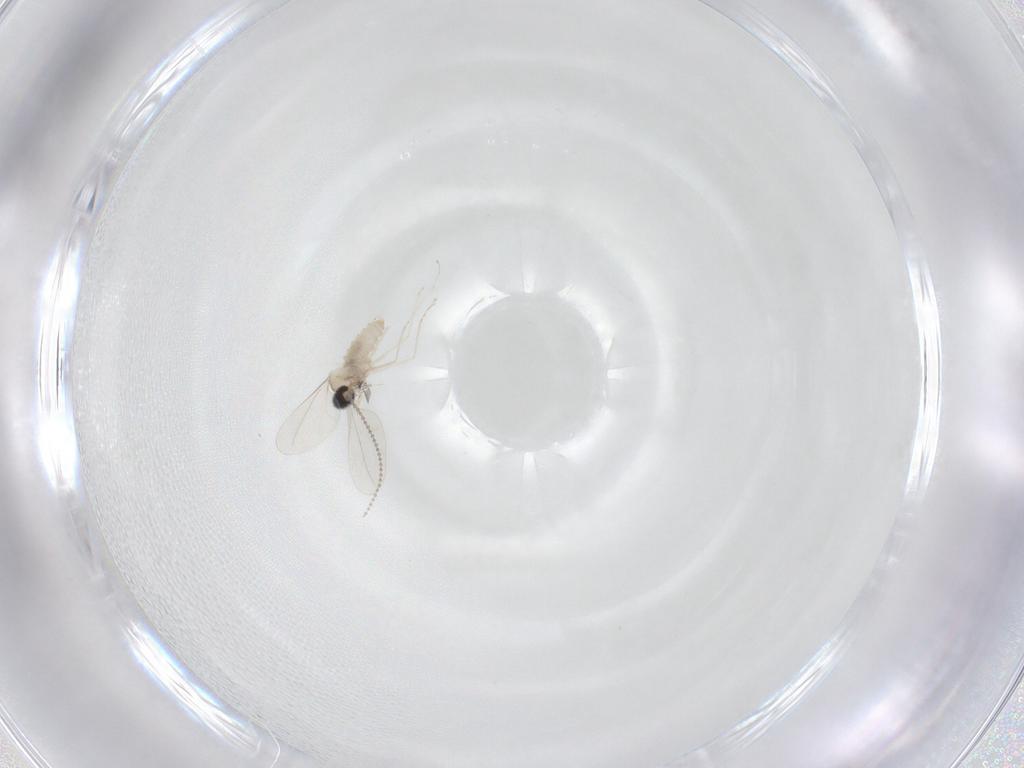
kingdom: Animalia
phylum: Arthropoda
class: Insecta
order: Diptera
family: Cecidomyiidae
